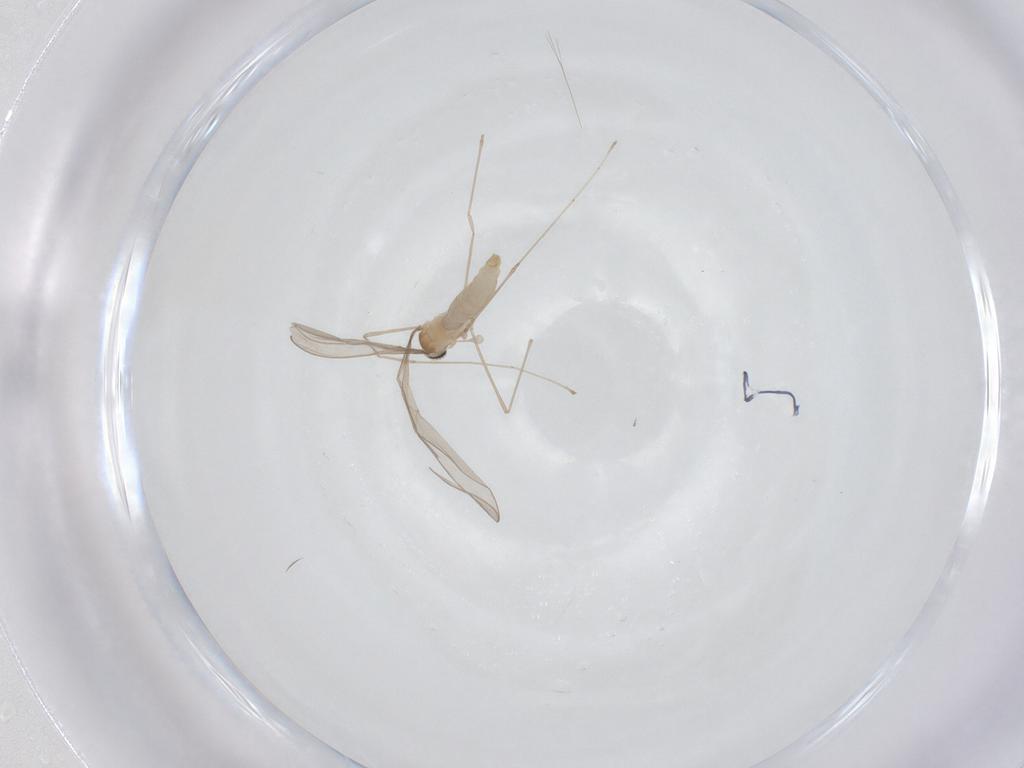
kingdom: Animalia
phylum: Arthropoda
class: Insecta
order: Diptera
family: Cecidomyiidae
